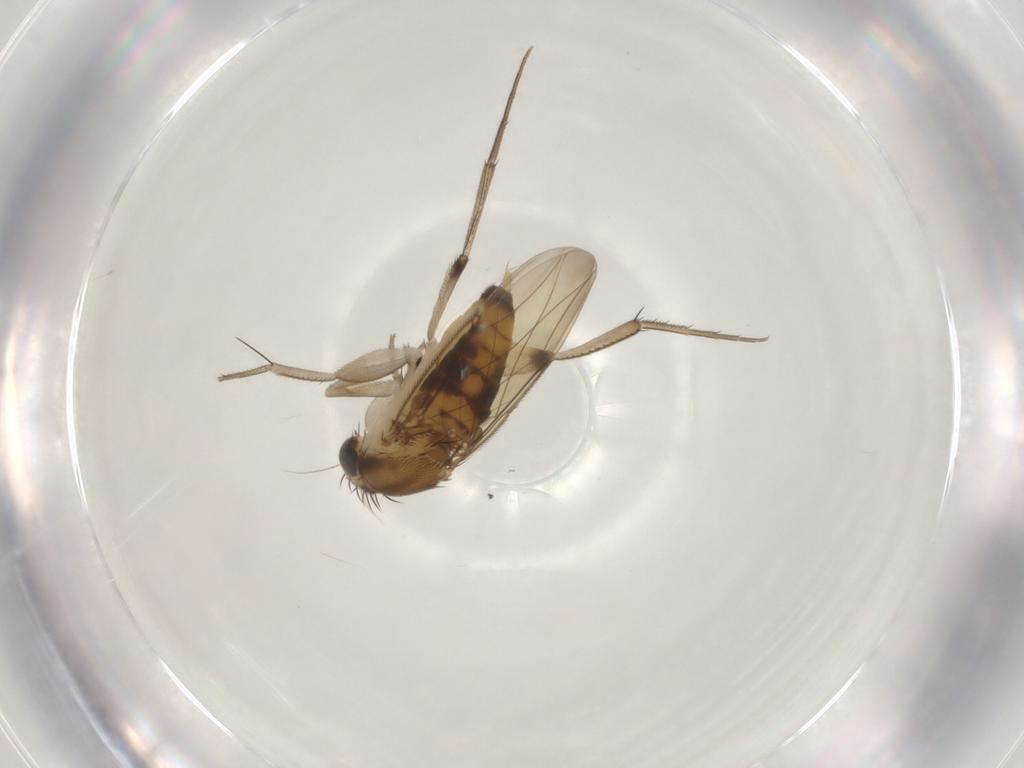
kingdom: Animalia
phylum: Arthropoda
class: Insecta
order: Diptera
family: Phoridae
